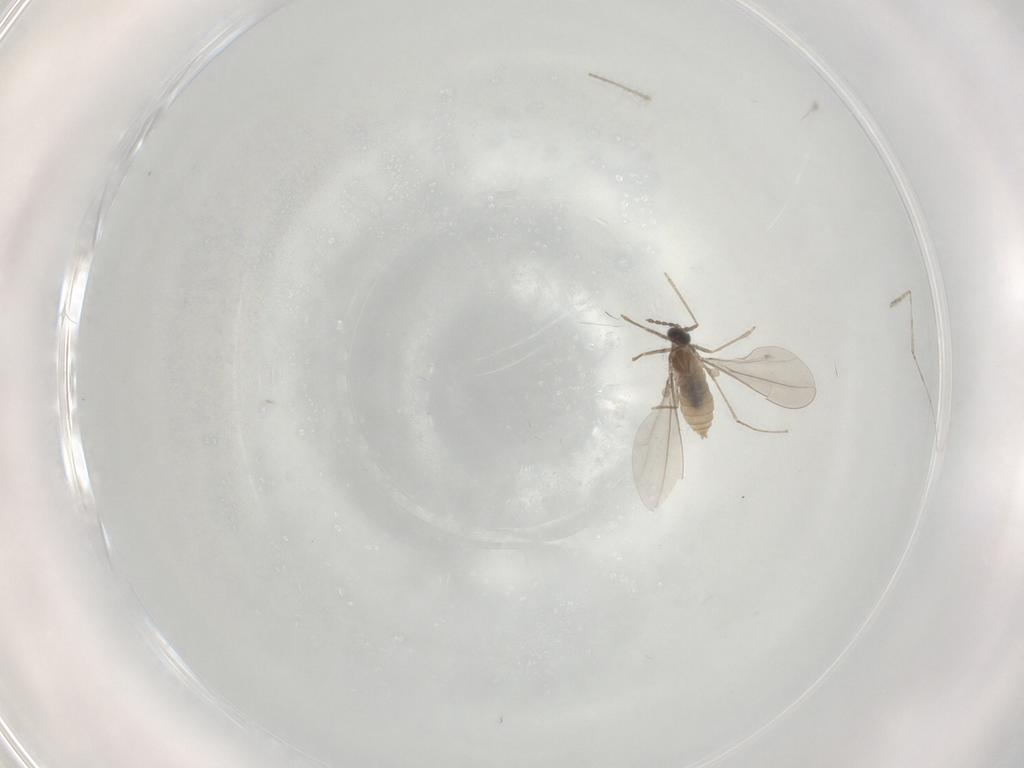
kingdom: Animalia
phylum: Arthropoda
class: Insecta
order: Diptera
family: Cecidomyiidae
